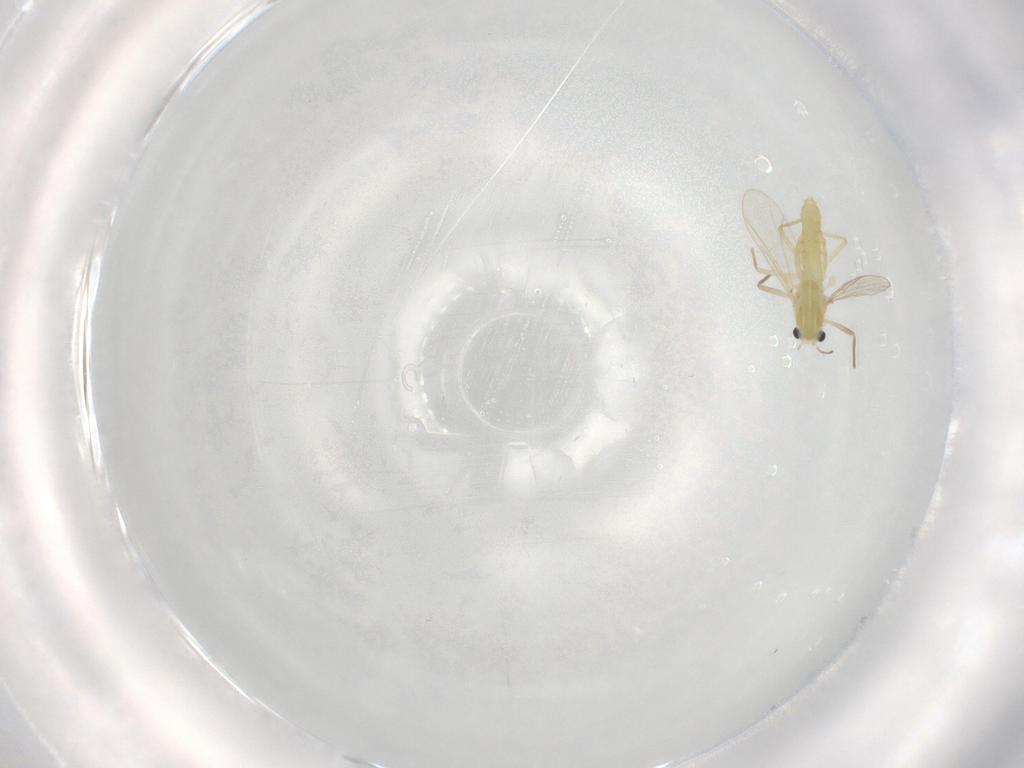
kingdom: Animalia
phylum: Arthropoda
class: Insecta
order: Diptera
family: Chironomidae
